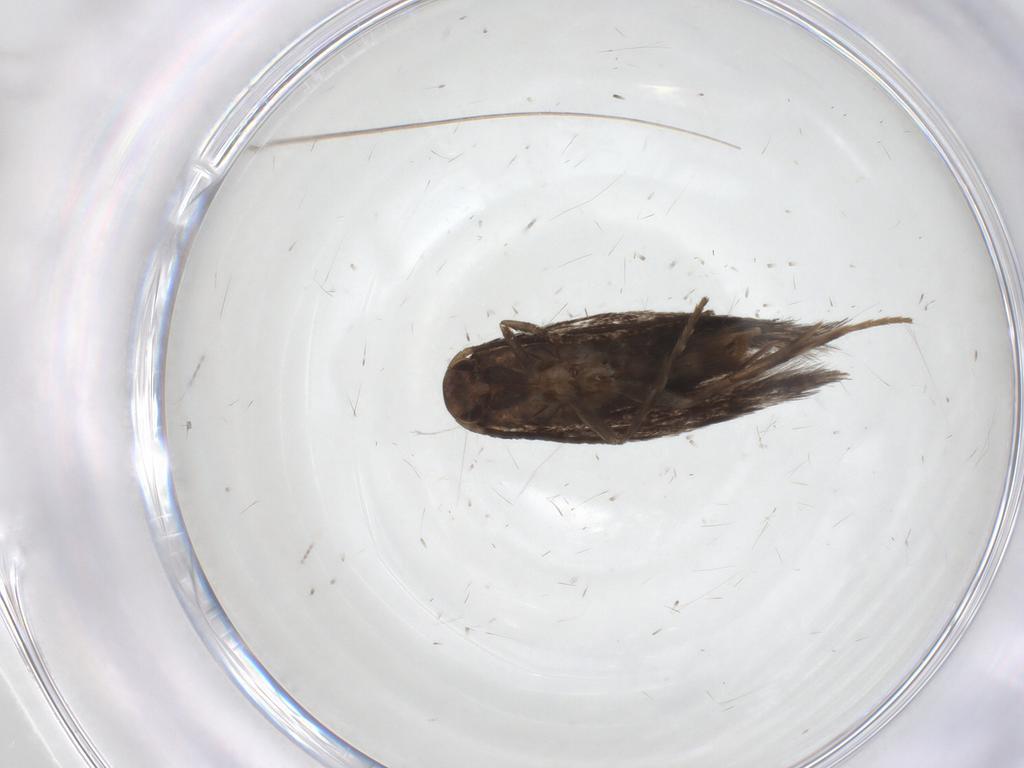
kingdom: Animalia
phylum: Arthropoda
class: Insecta
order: Lepidoptera
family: Elachistidae
